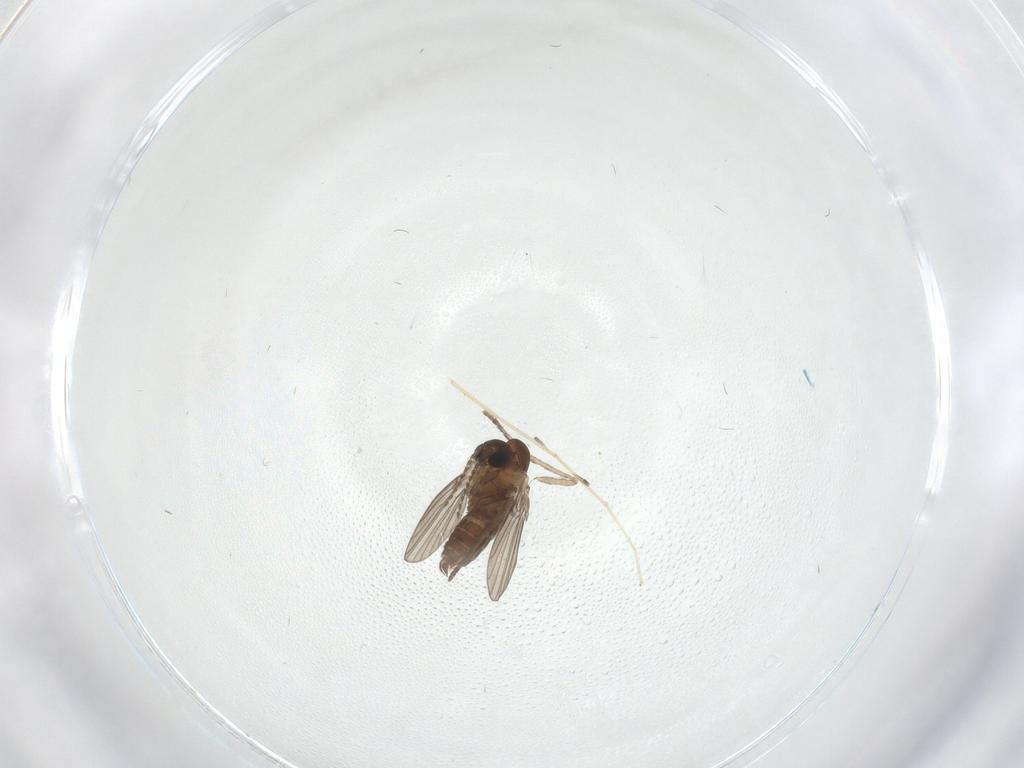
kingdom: Animalia
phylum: Arthropoda
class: Insecta
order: Diptera
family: Cecidomyiidae
